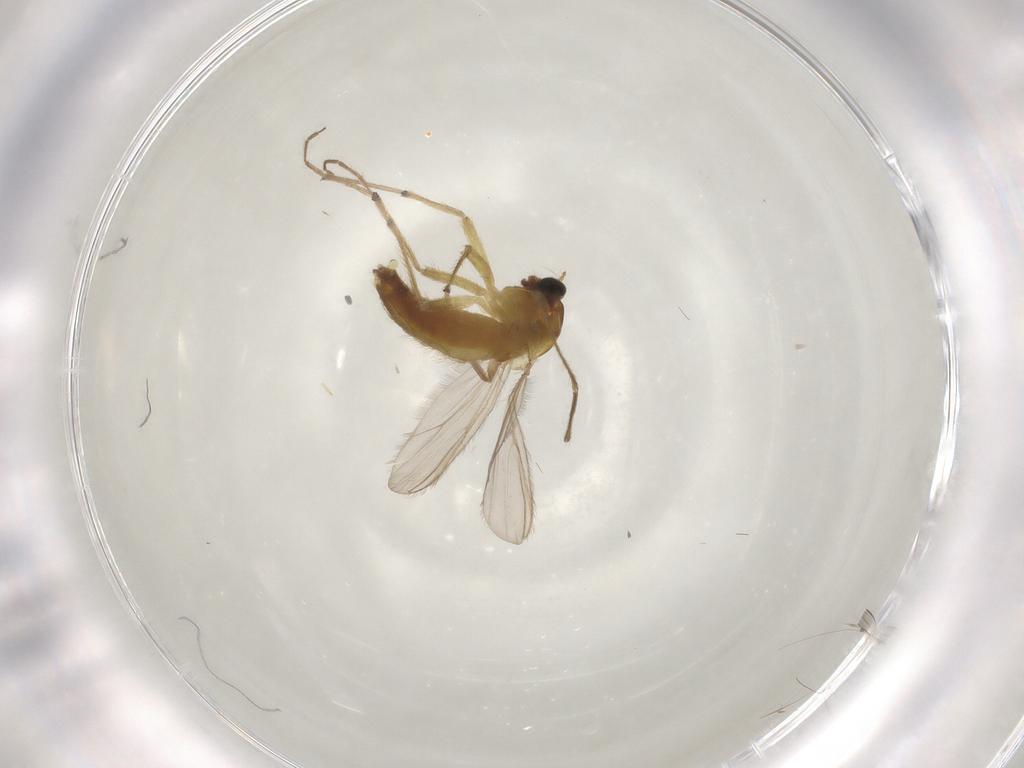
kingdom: Animalia
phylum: Arthropoda
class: Insecta
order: Diptera
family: Chironomidae
